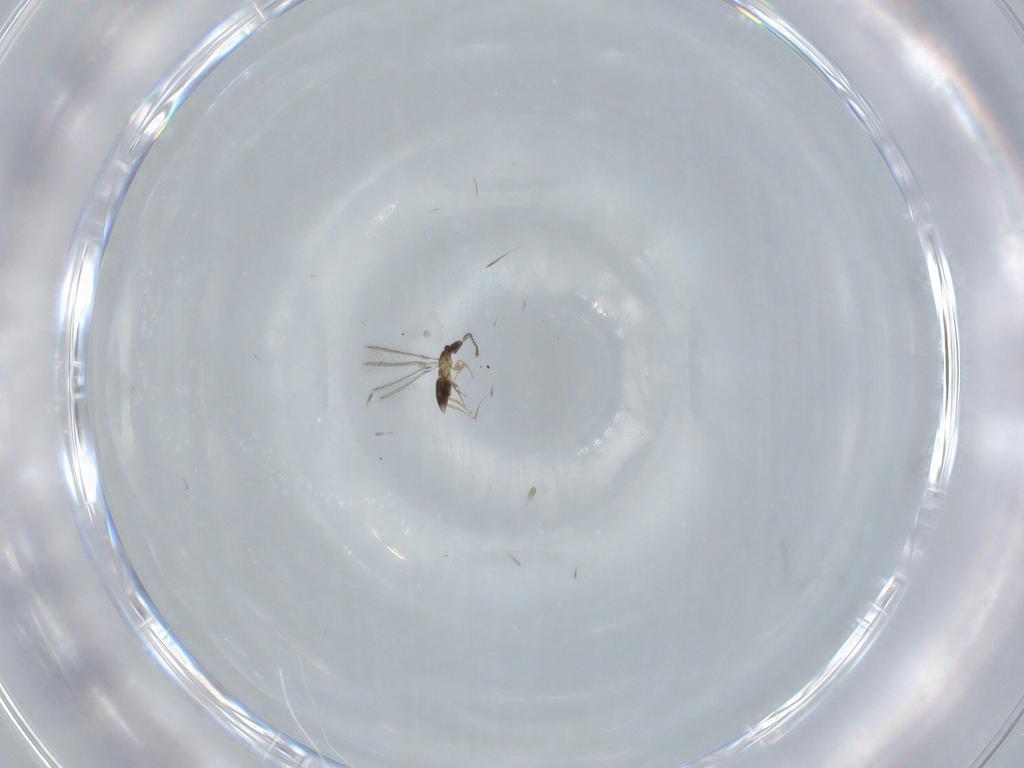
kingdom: Animalia
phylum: Arthropoda
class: Insecta
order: Hymenoptera
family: Mymaridae
